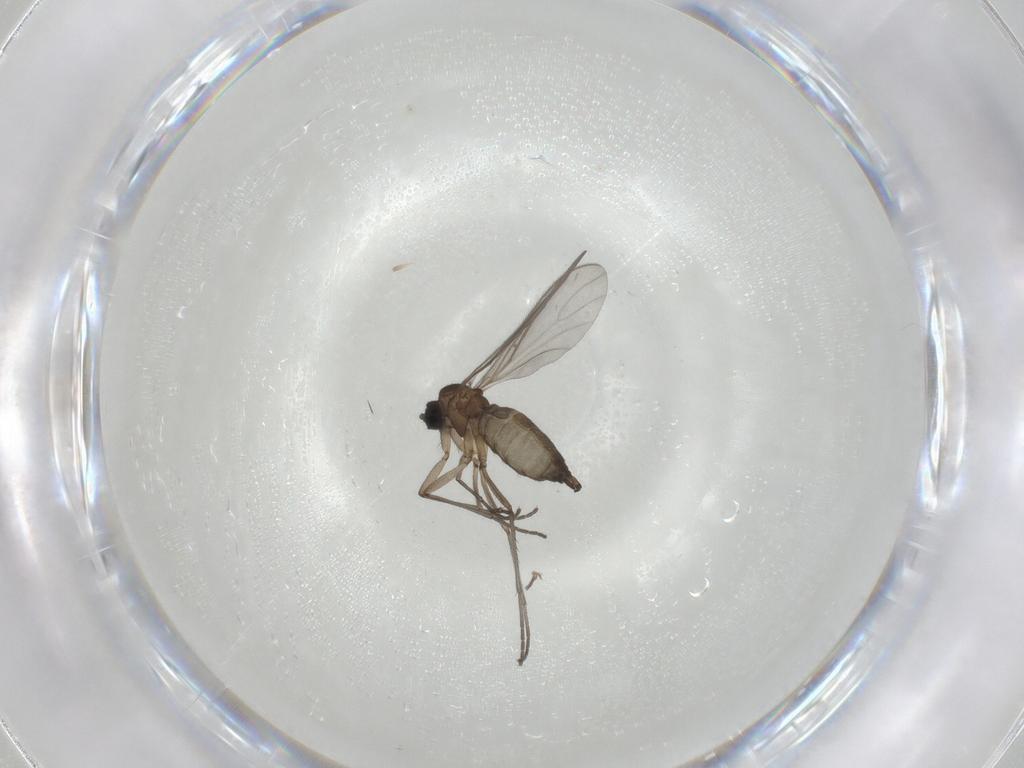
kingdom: Animalia
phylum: Arthropoda
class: Insecta
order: Diptera
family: Sciaridae
